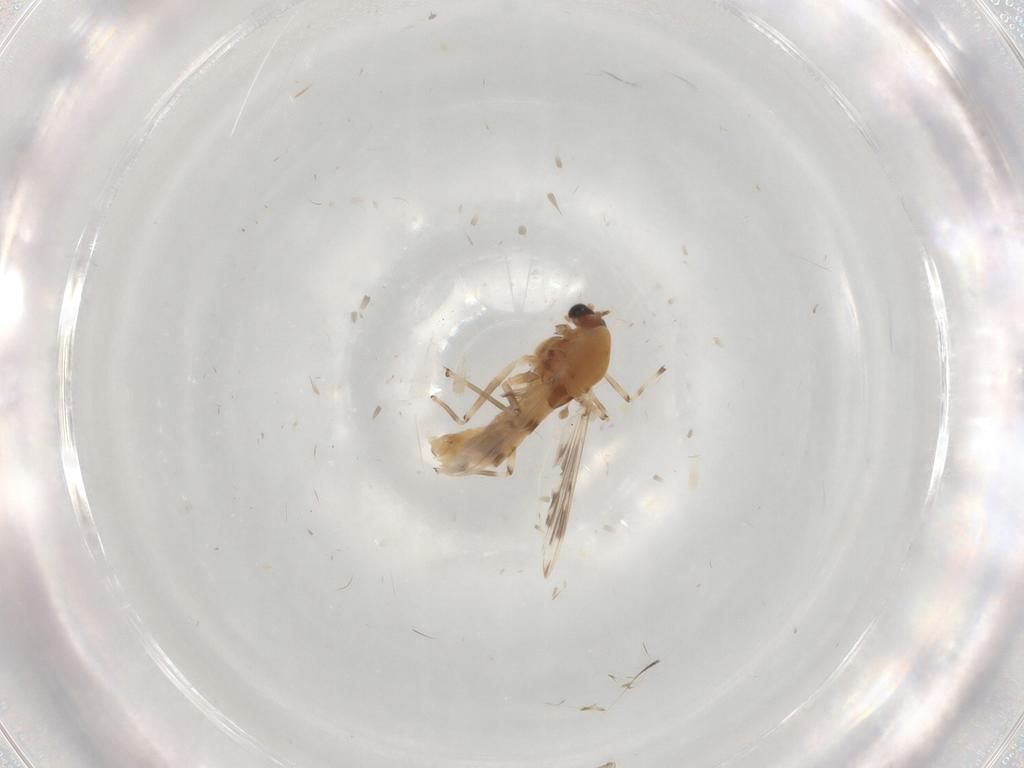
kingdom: Animalia
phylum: Arthropoda
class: Insecta
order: Diptera
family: Chironomidae
